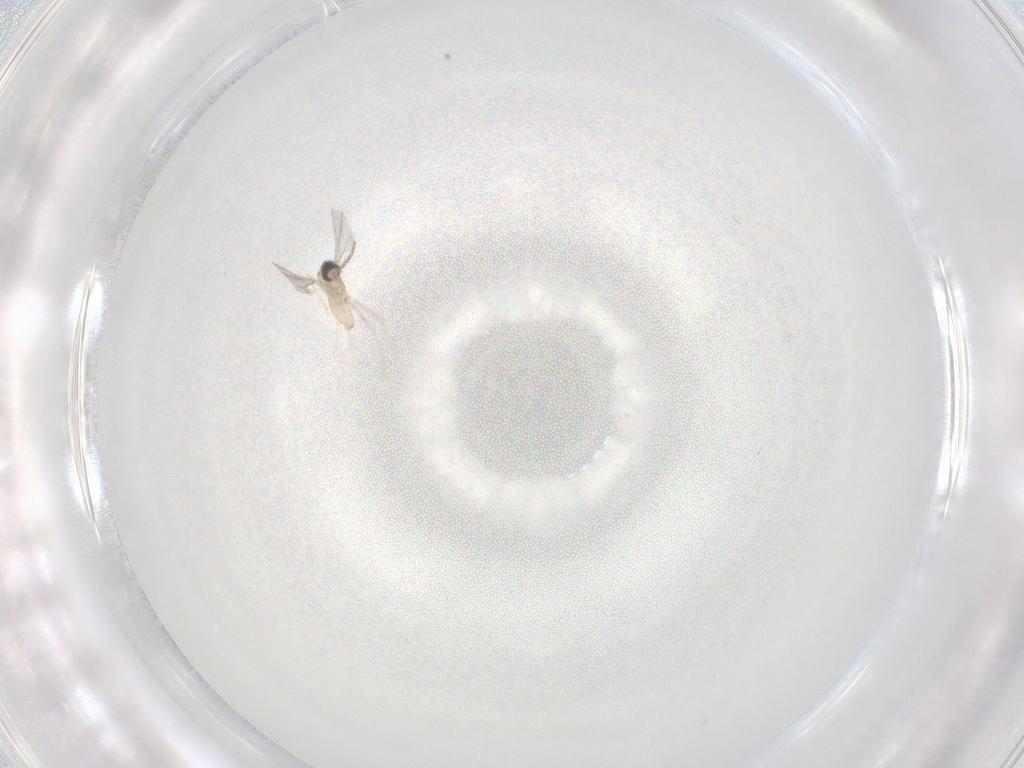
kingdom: Animalia
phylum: Arthropoda
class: Insecta
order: Diptera
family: Cecidomyiidae
